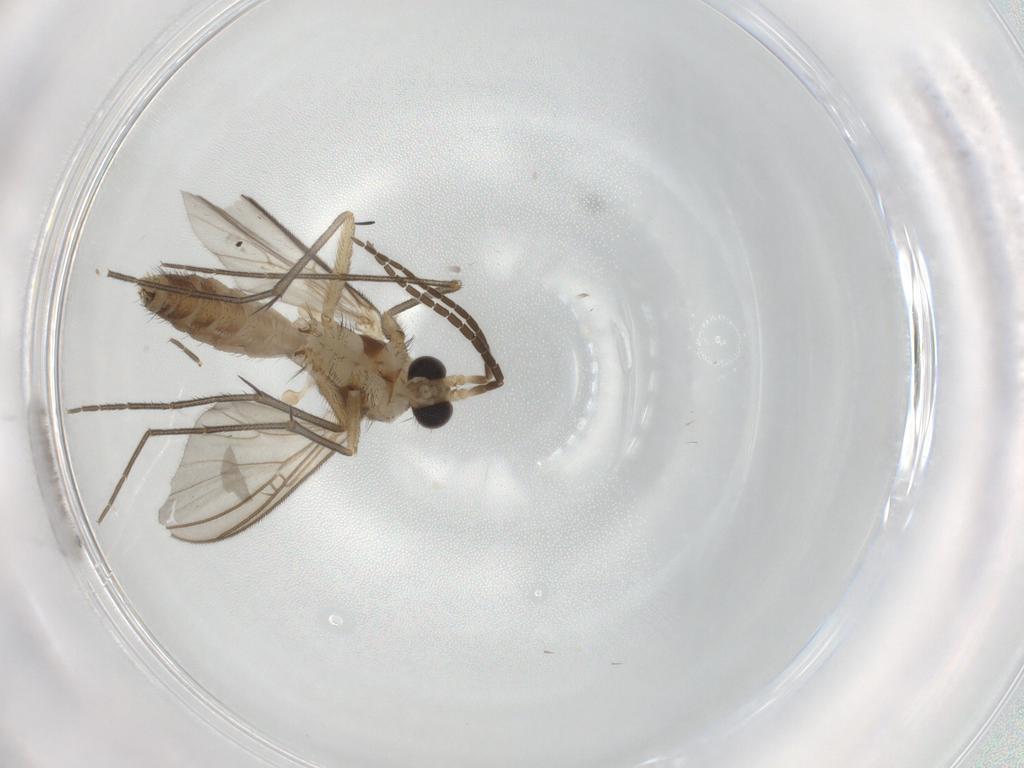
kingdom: Animalia
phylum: Arthropoda
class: Insecta
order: Diptera
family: Mycetophilidae
